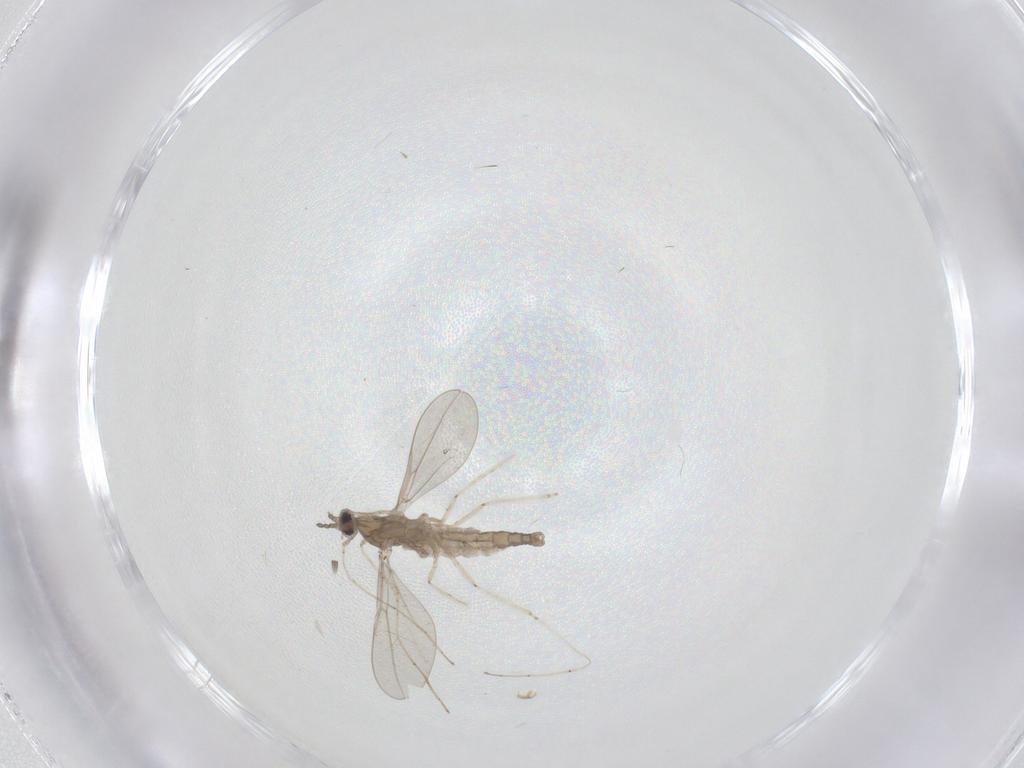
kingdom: Animalia
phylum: Arthropoda
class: Insecta
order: Diptera
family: Cecidomyiidae
